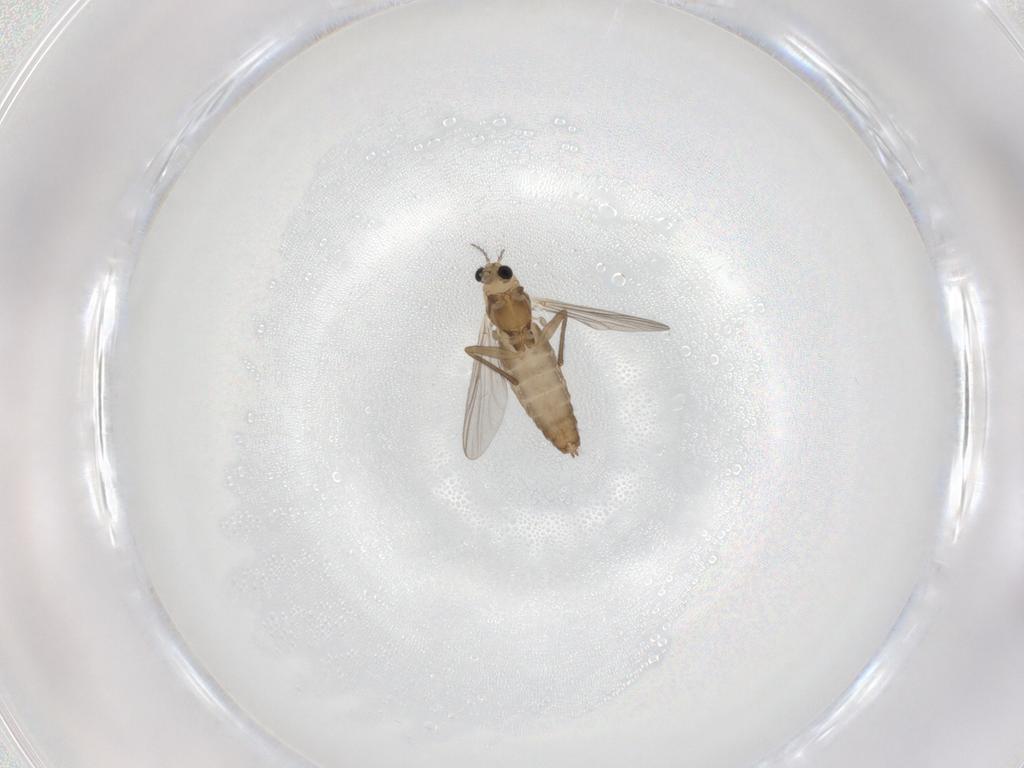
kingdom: Animalia
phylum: Arthropoda
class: Insecta
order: Diptera
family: Chironomidae
